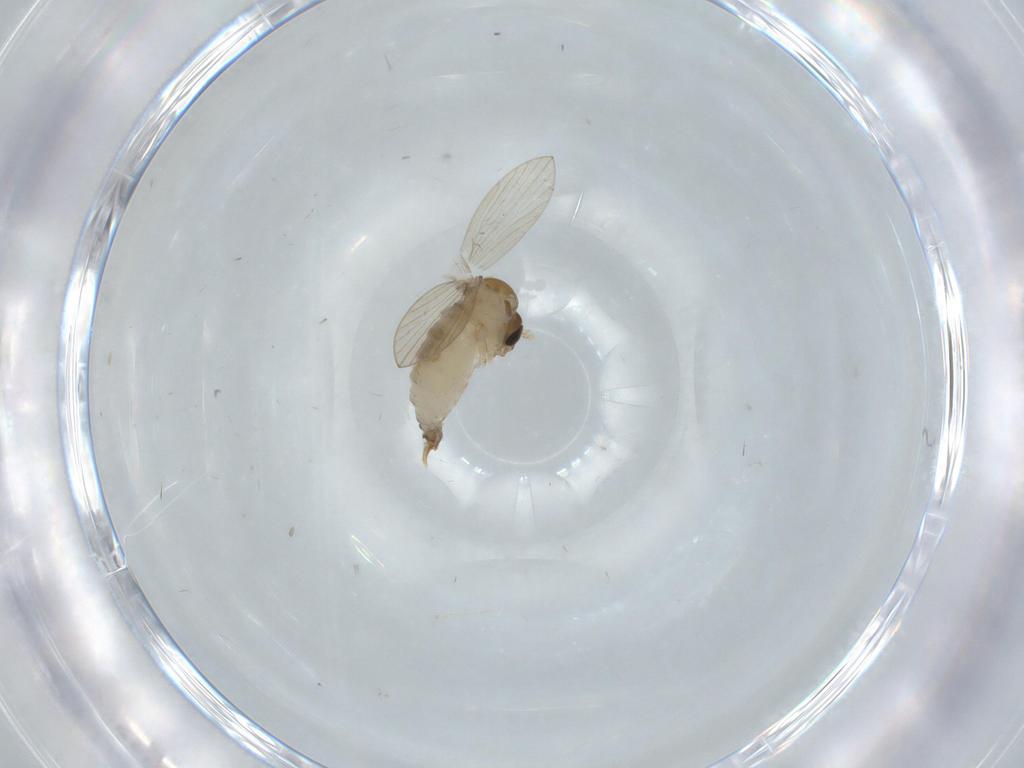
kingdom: Animalia
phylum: Arthropoda
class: Insecta
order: Diptera
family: Psychodidae
